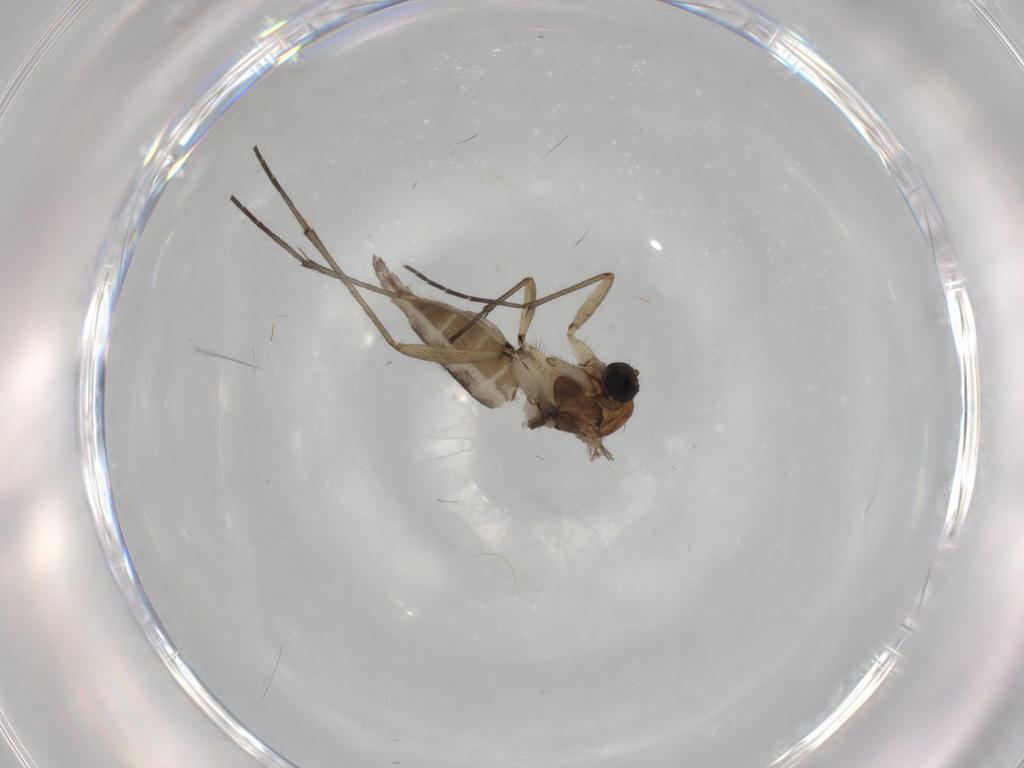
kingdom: Animalia
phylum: Arthropoda
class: Insecta
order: Diptera
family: Sciaridae
